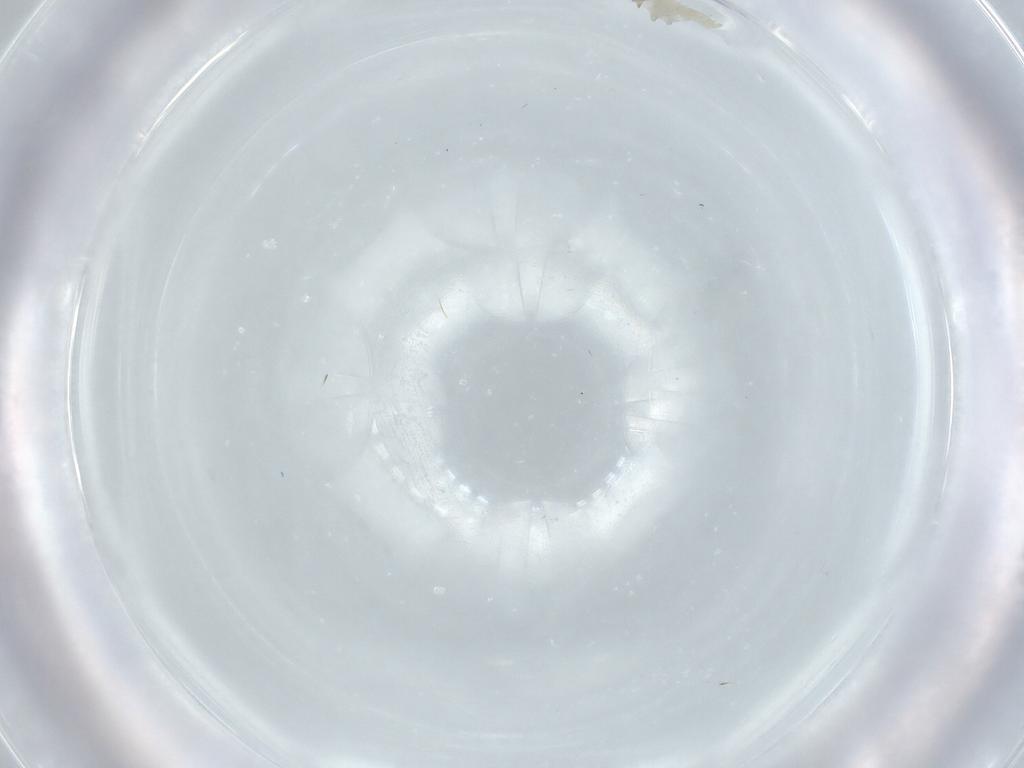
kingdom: Animalia
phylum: Arthropoda
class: Insecta
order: Diptera
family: Cecidomyiidae
